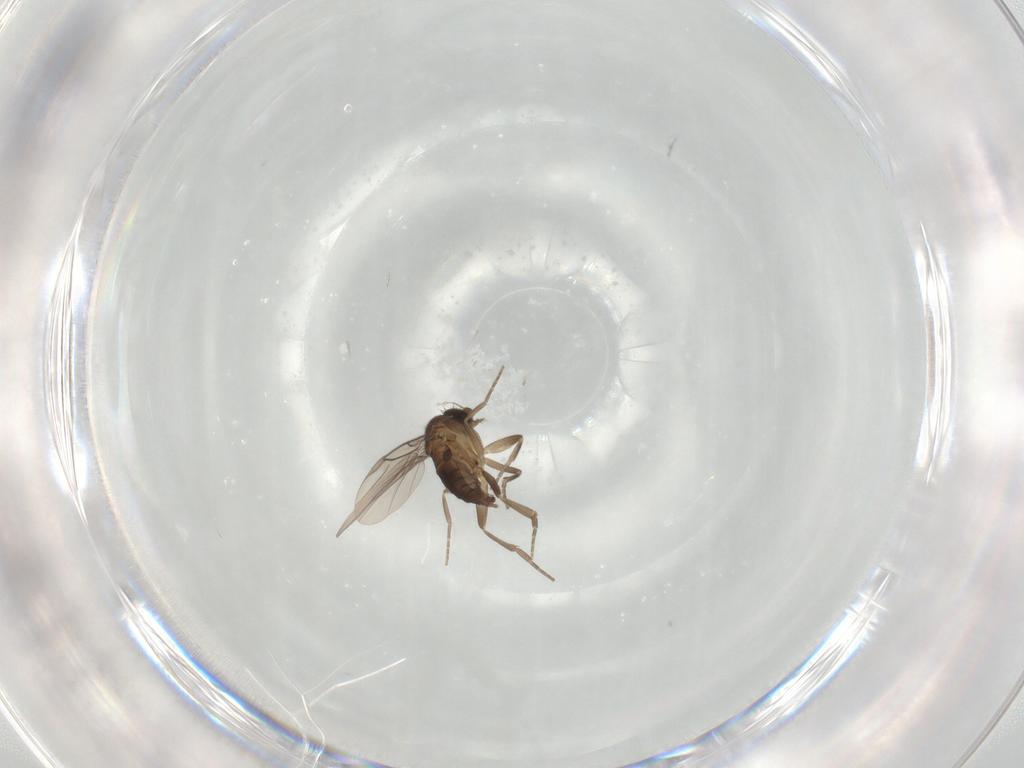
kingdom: Animalia
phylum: Arthropoda
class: Insecta
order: Diptera
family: Phoridae
